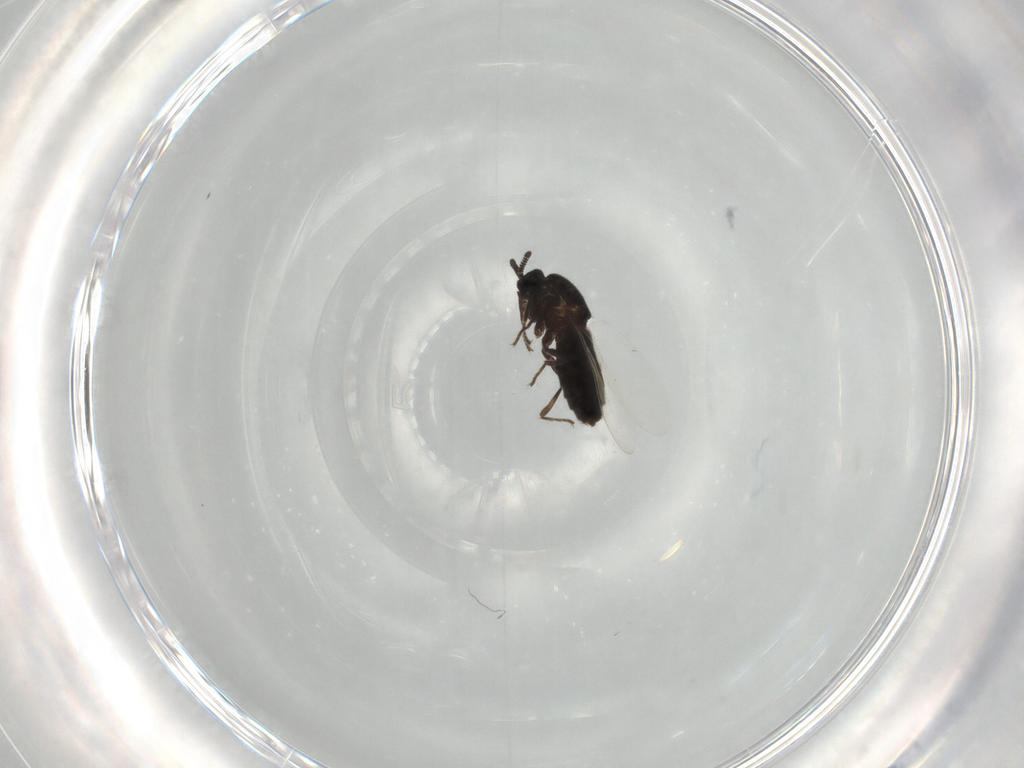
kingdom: Animalia
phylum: Arthropoda
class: Insecta
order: Diptera
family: Scatopsidae
